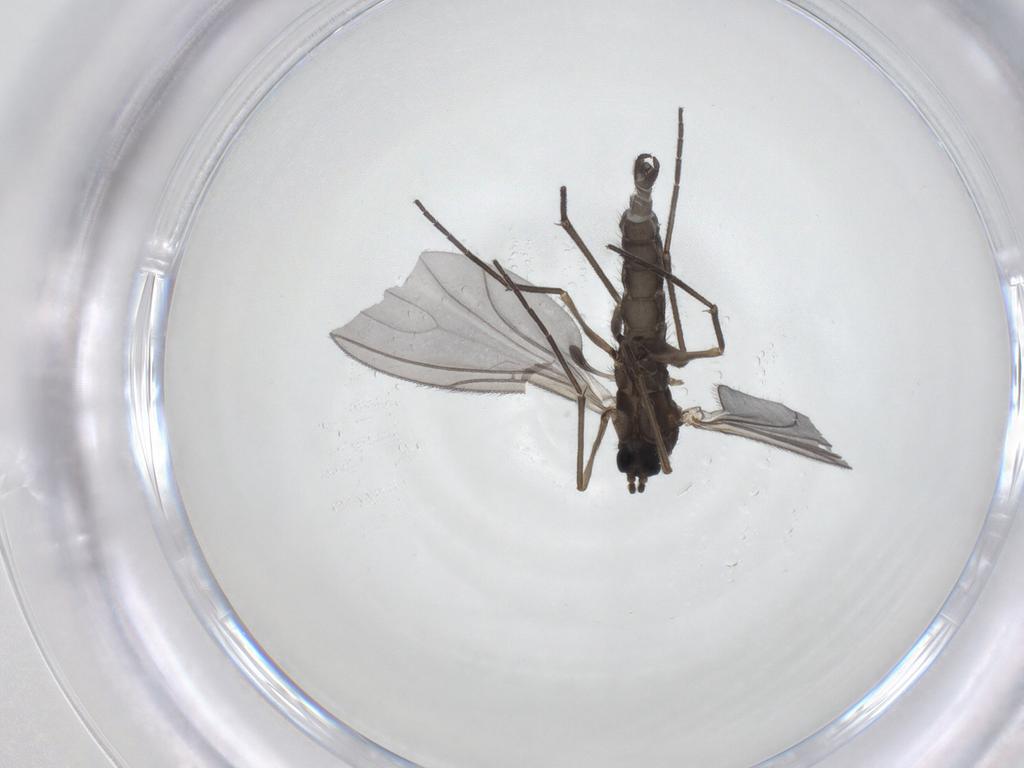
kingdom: Animalia
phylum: Arthropoda
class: Insecta
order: Diptera
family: Sciaridae
